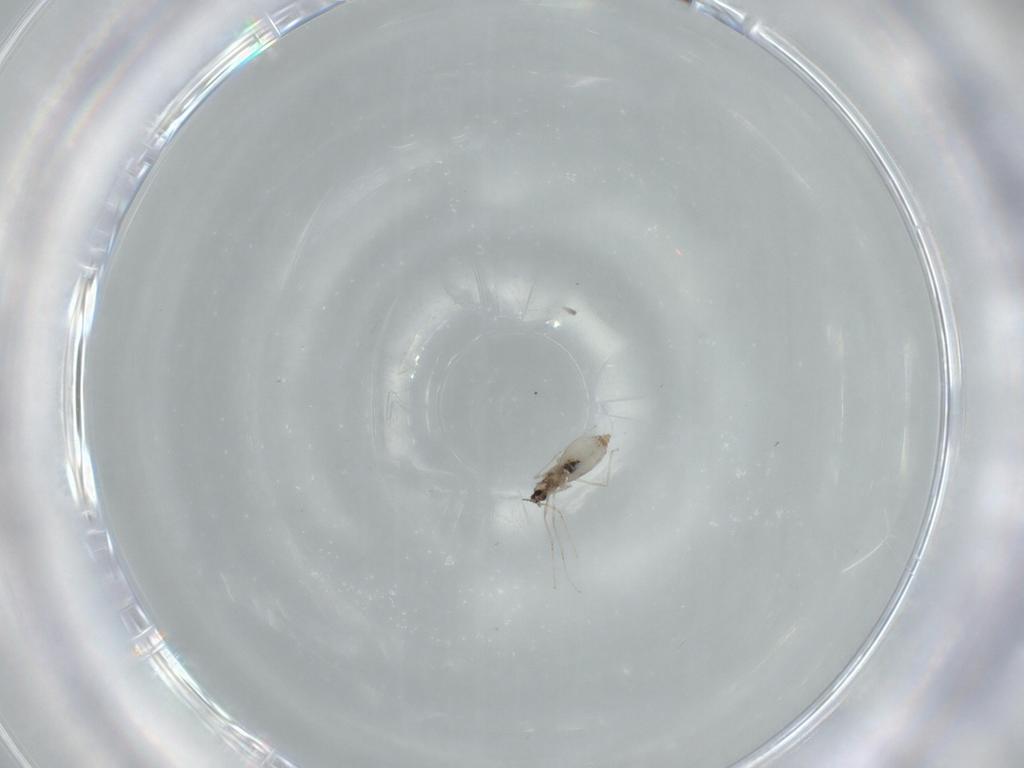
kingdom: Animalia
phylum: Arthropoda
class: Insecta
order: Diptera
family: Cecidomyiidae
